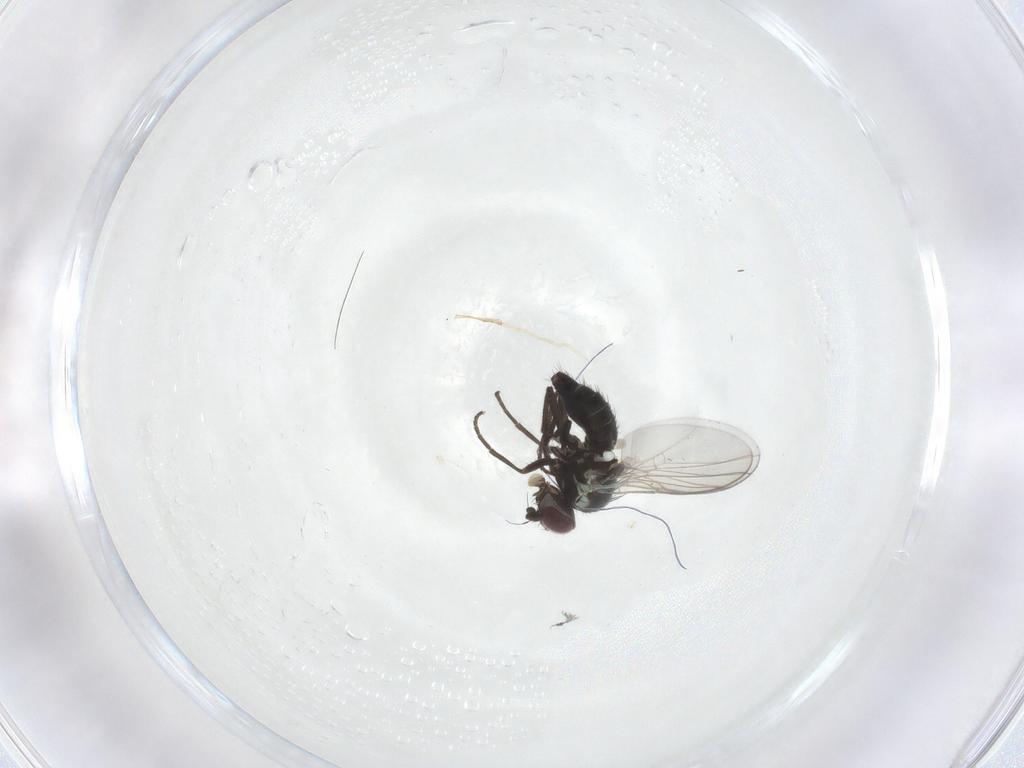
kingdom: Animalia
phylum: Arthropoda
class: Insecta
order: Diptera
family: Agromyzidae
